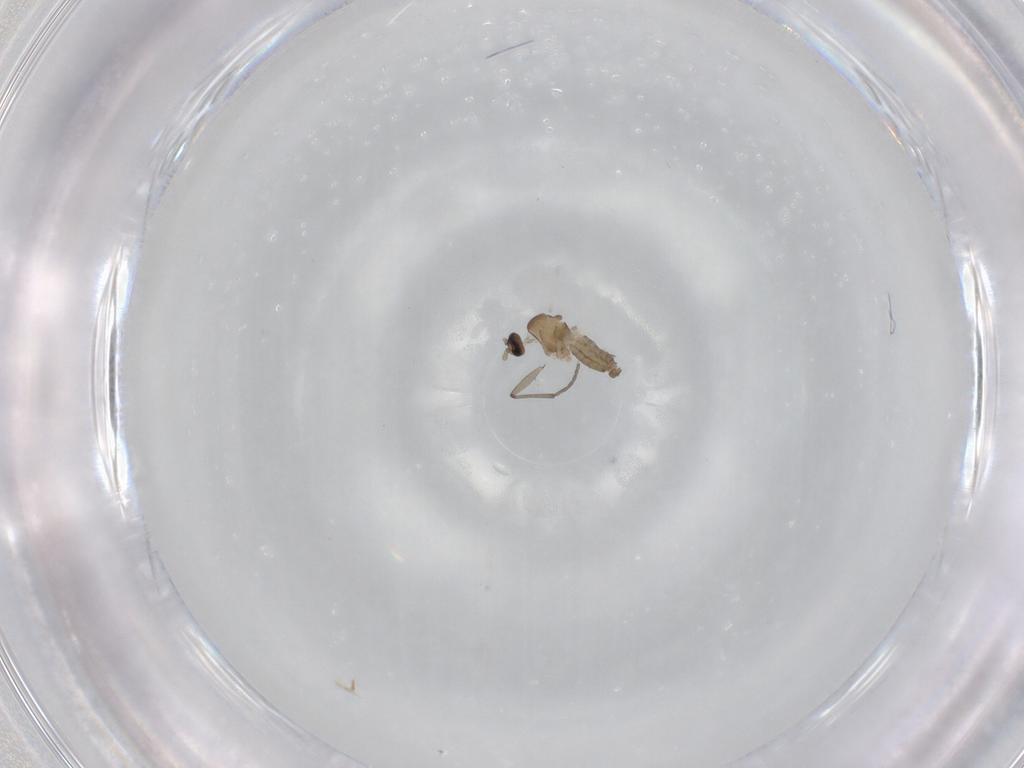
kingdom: Animalia
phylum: Arthropoda
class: Insecta
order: Diptera
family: Cecidomyiidae
